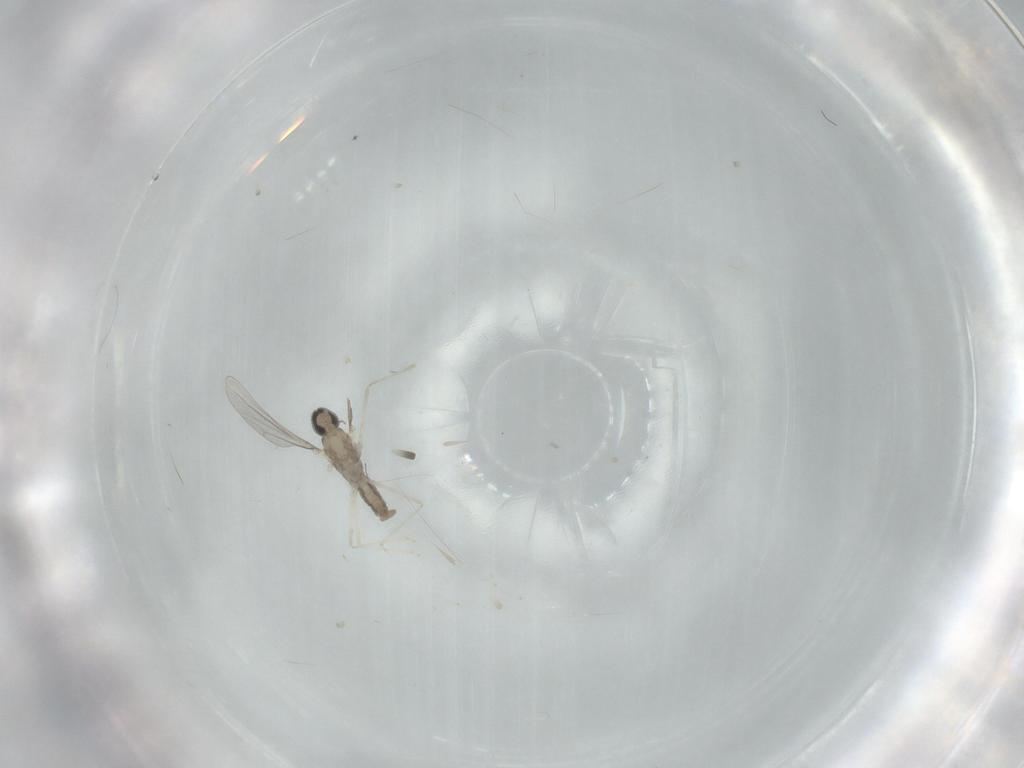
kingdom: Animalia
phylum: Arthropoda
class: Insecta
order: Diptera
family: Cecidomyiidae
